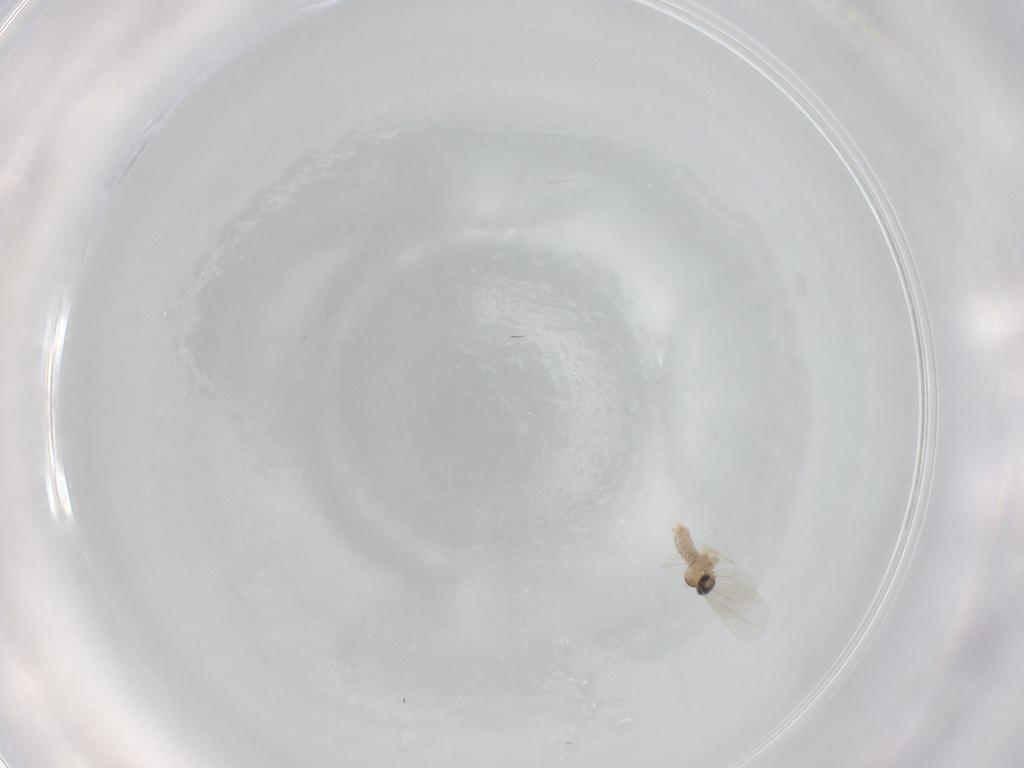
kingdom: Animalia
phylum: Arthropoda
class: Insecta
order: Diptera
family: Cecidomyiidae
